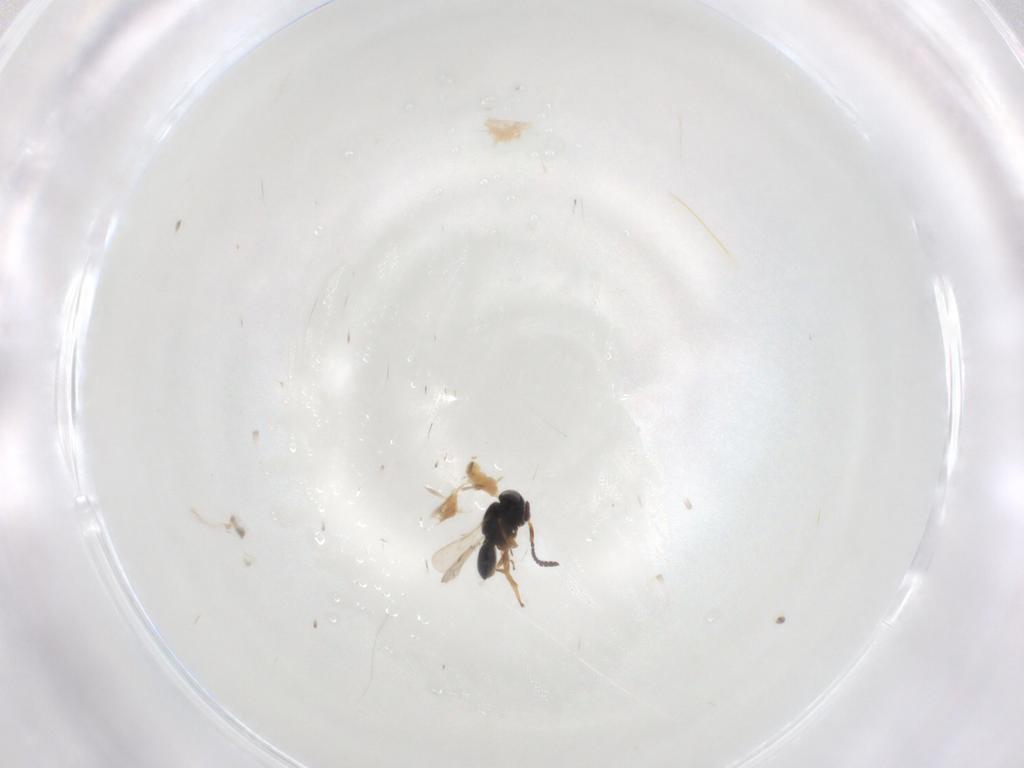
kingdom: Animalia
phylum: Arthropoda
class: Insecta
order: Hymenoptera
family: Scelionidae
